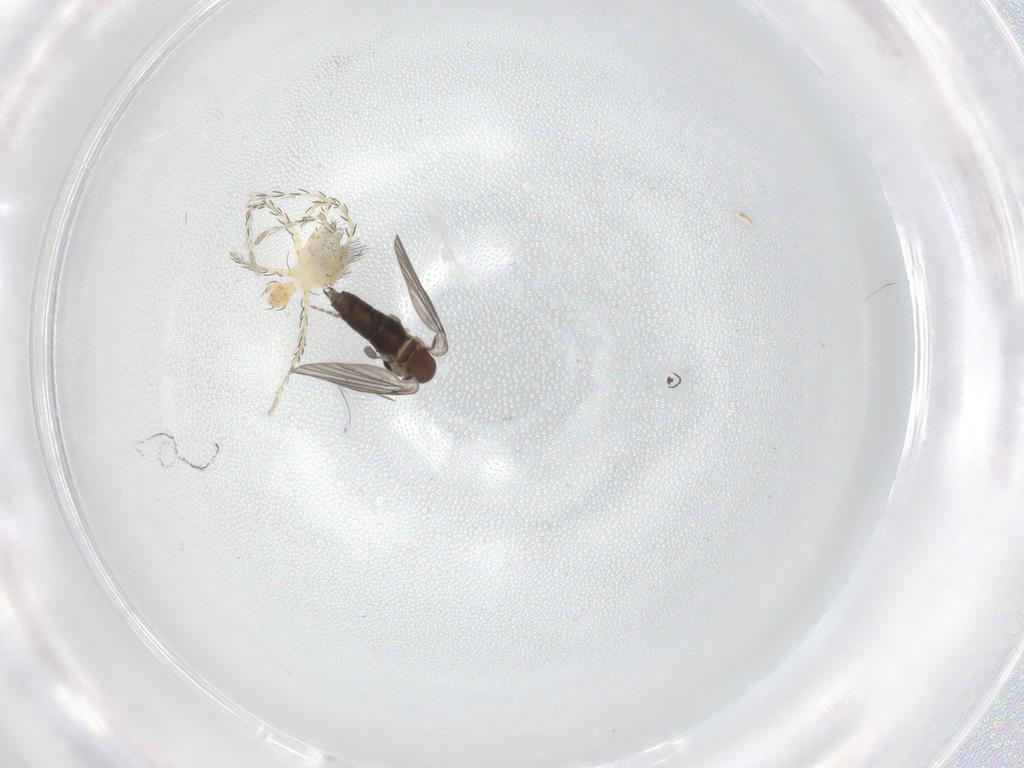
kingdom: Animalia
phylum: Arthropoda
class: Arachnida
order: Trombidiformes
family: Erythraeidae
